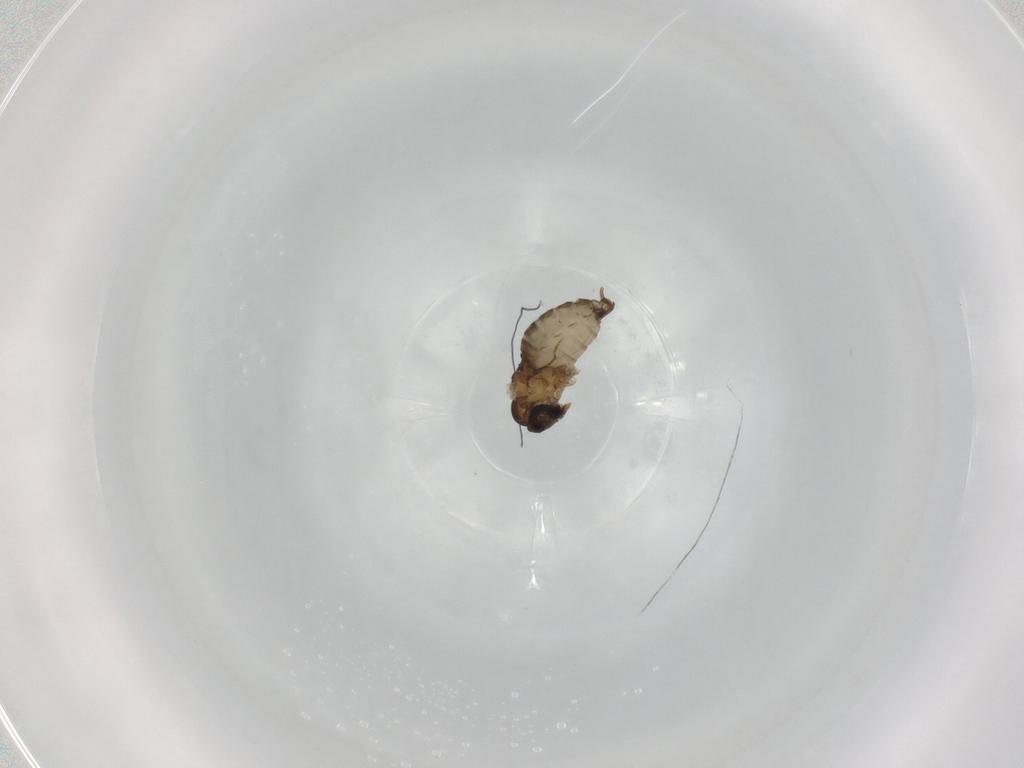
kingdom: Animalia
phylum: Arthropoda
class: Insecta
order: Diptera
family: Psychodidae
